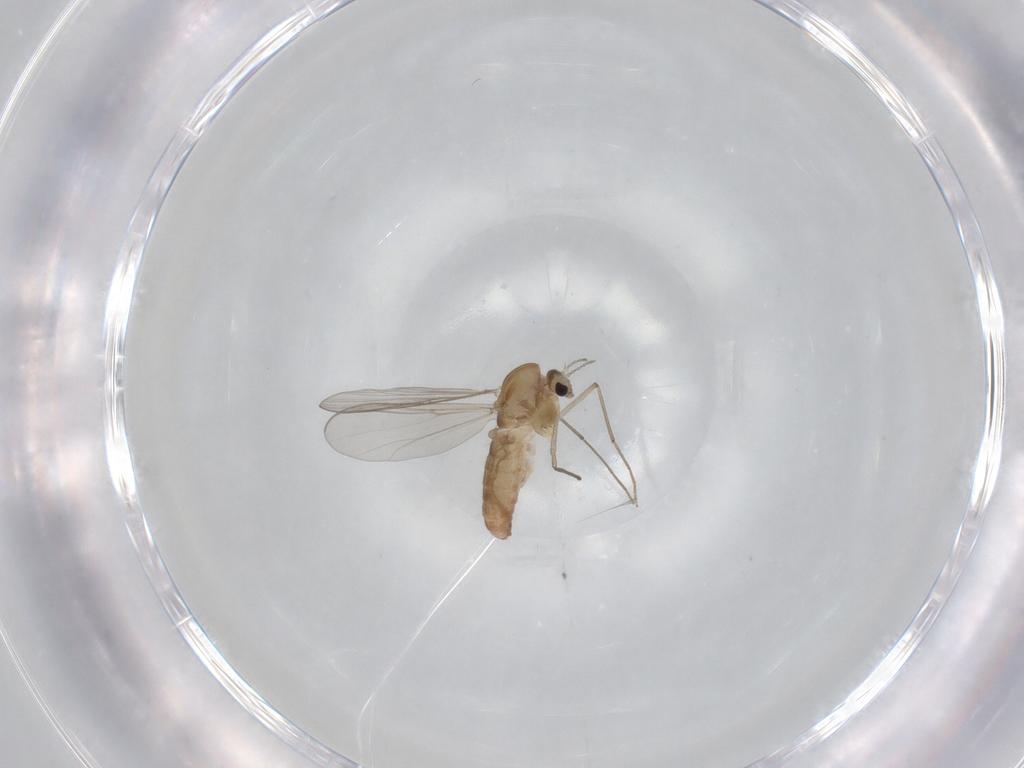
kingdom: Animalia
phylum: Arthropoda
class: Insecta
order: Diptera
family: Chironomidae
